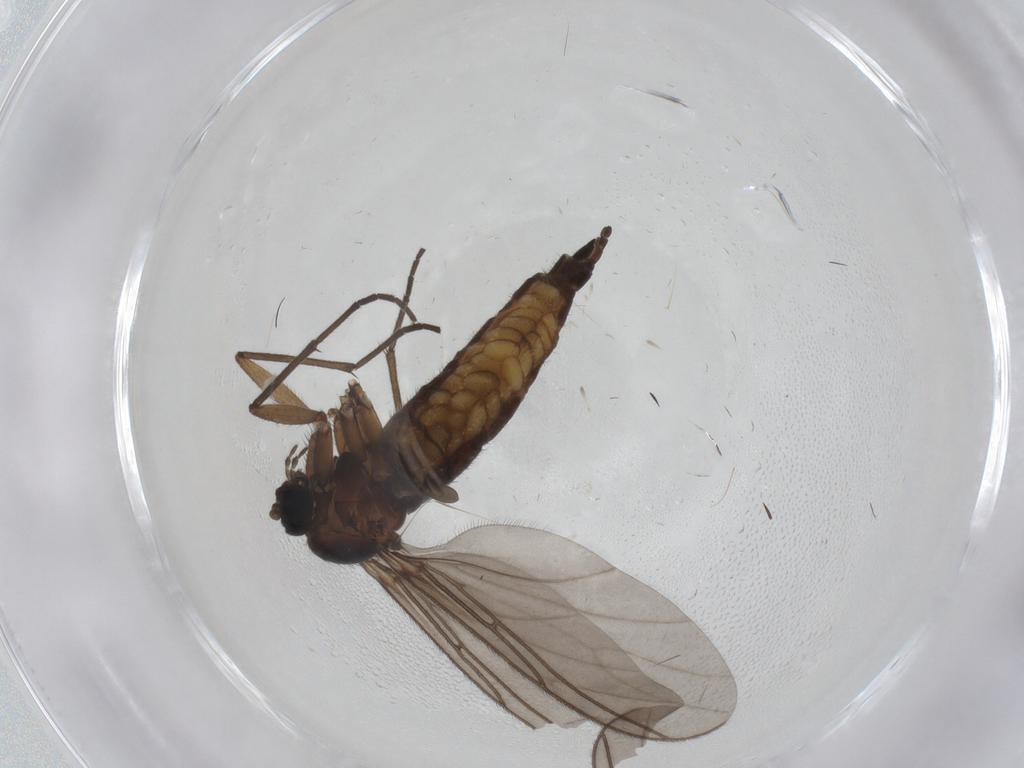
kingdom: Animalia
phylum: Arthropoda
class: Insecta
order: Diptera
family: Sciaridae
